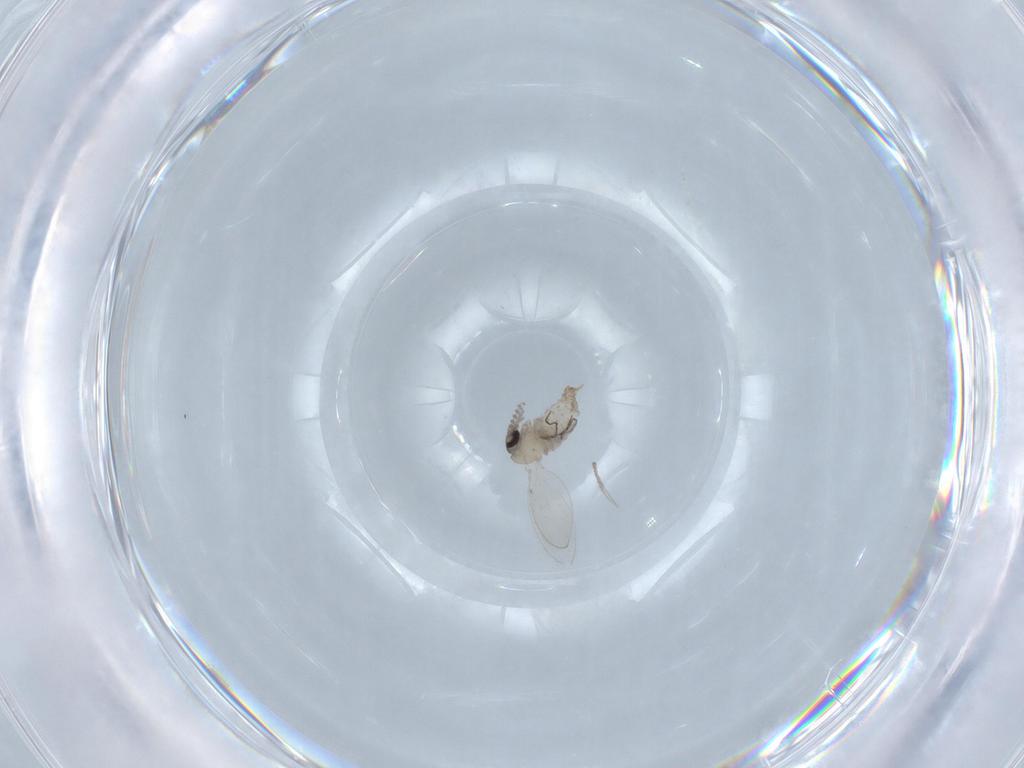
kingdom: Animalia
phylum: Arthropoda
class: Insecta
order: Diptera
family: Psychodidae
